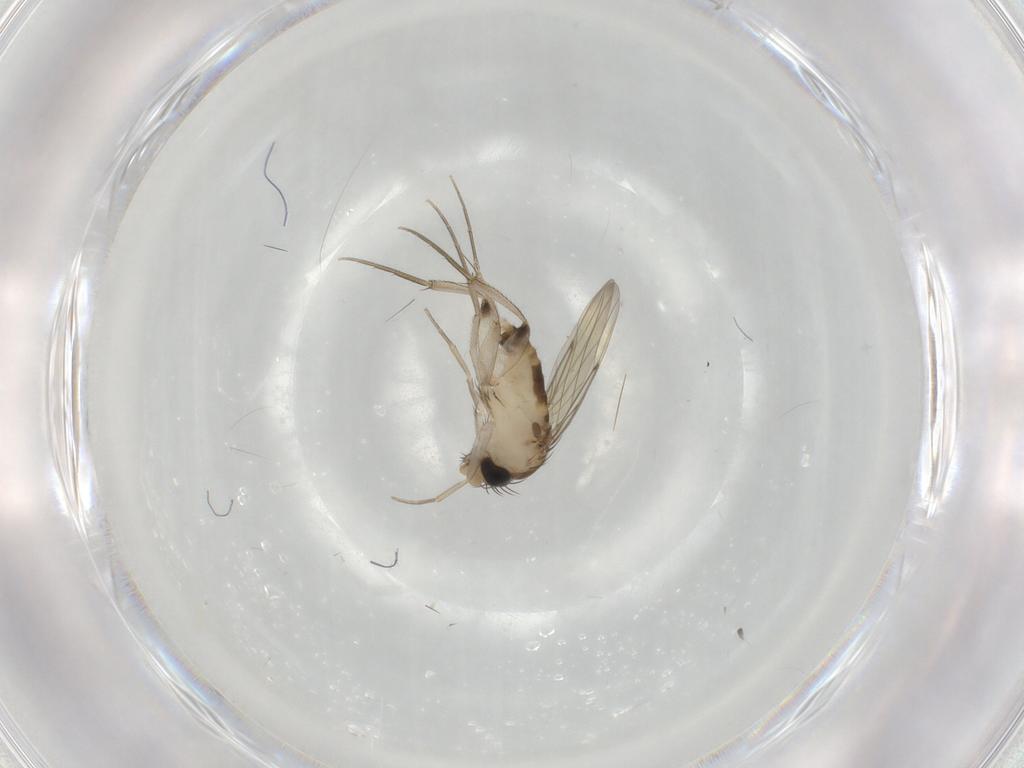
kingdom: Animalia
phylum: Arthropoda
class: Insecta
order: Diptera
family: Phoridae
